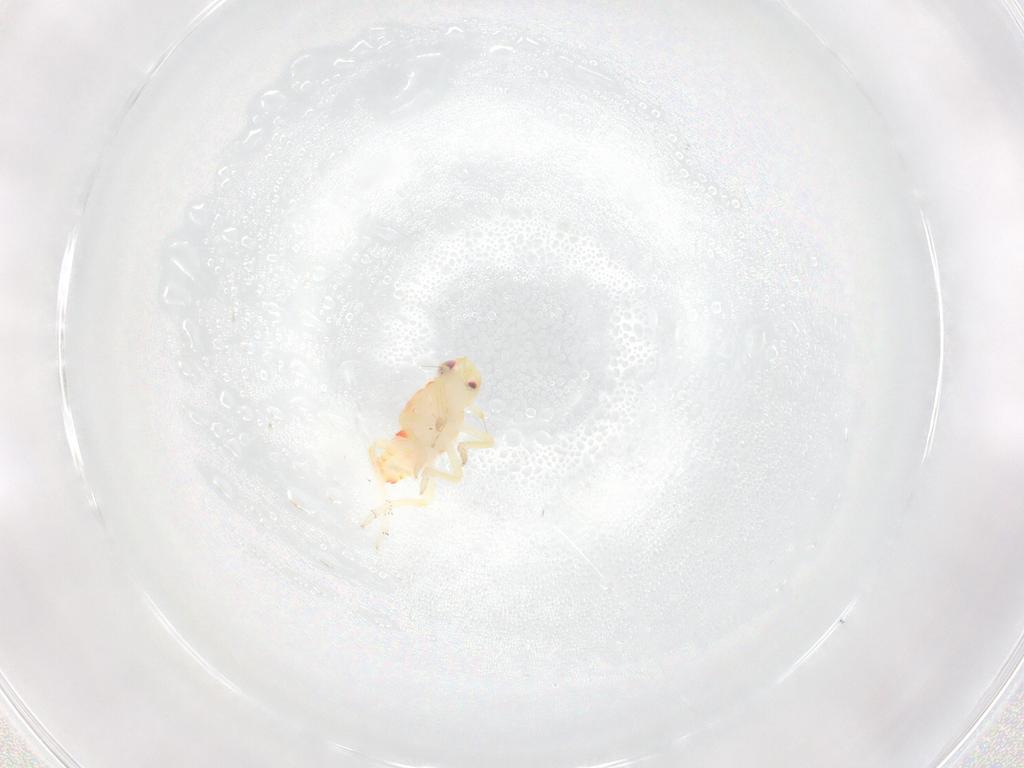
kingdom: Animalia
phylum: Arthropoda
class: Insecta
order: Hemiptera
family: Tropiduchidae
